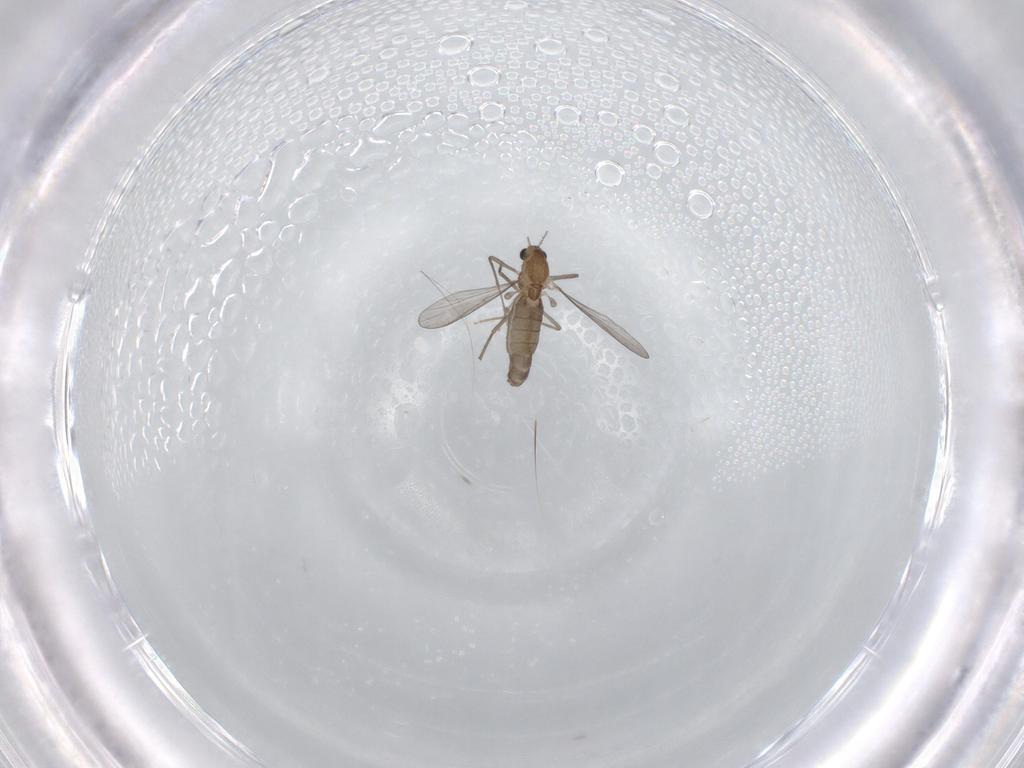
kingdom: Animalia
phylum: Arthropoda
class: Insecta
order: Diptera
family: Chironomidae
